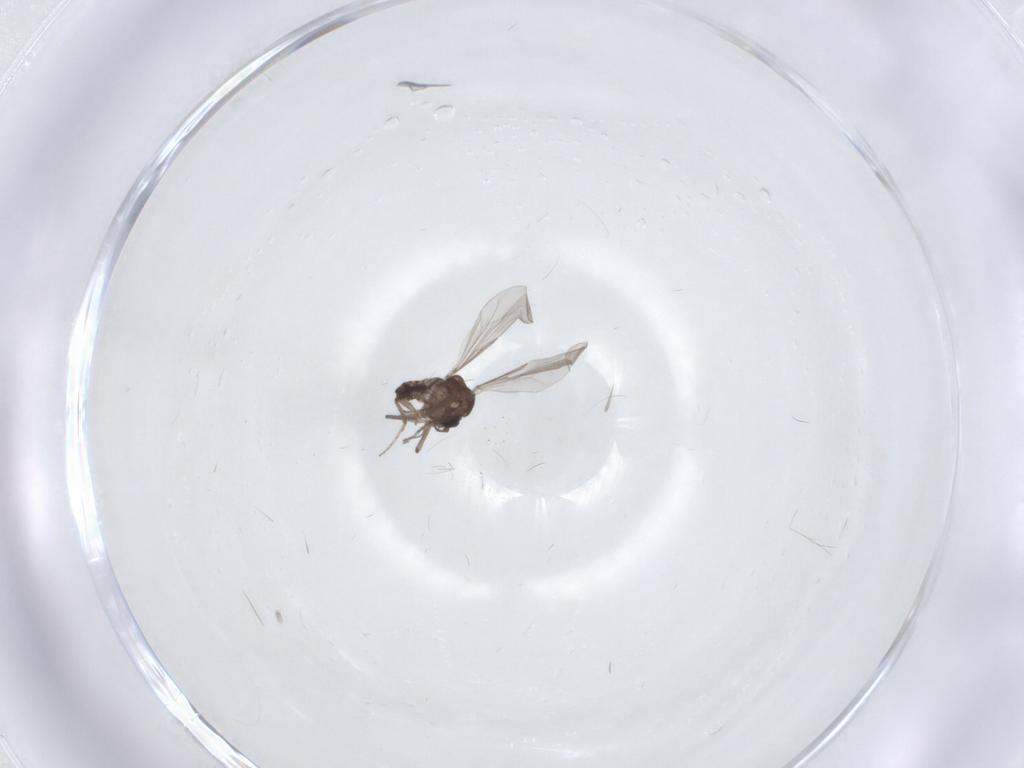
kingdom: Animalia
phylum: Arthropoda
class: Insecta
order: Diptera
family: Ceratopogonidae
